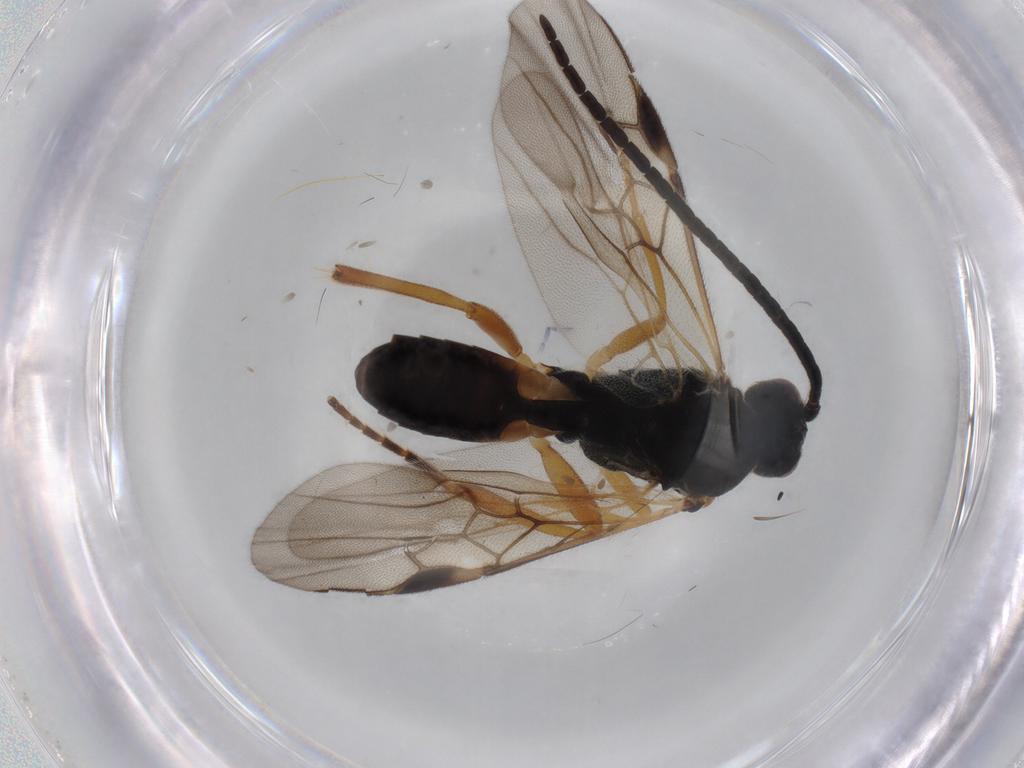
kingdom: Animalia
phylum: Arthropoda
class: Insecta
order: Hymenoptera
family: Braconidae
